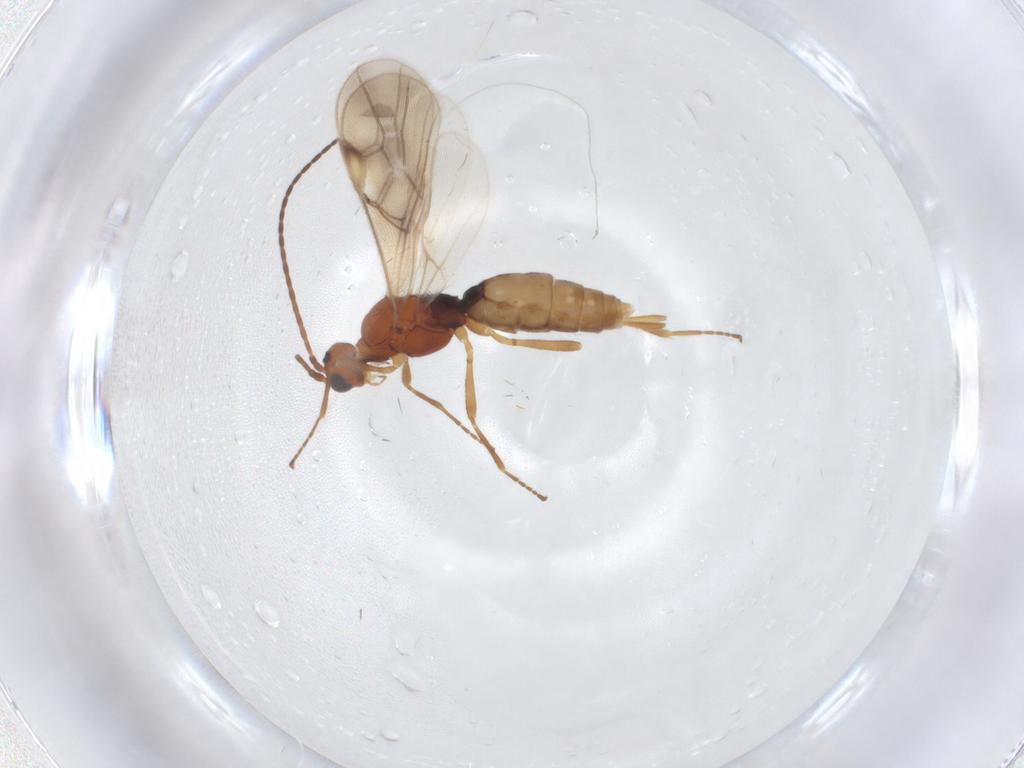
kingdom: Animalia
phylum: Arthropoda
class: Insecta
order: Hymenoptera
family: Braconidae
